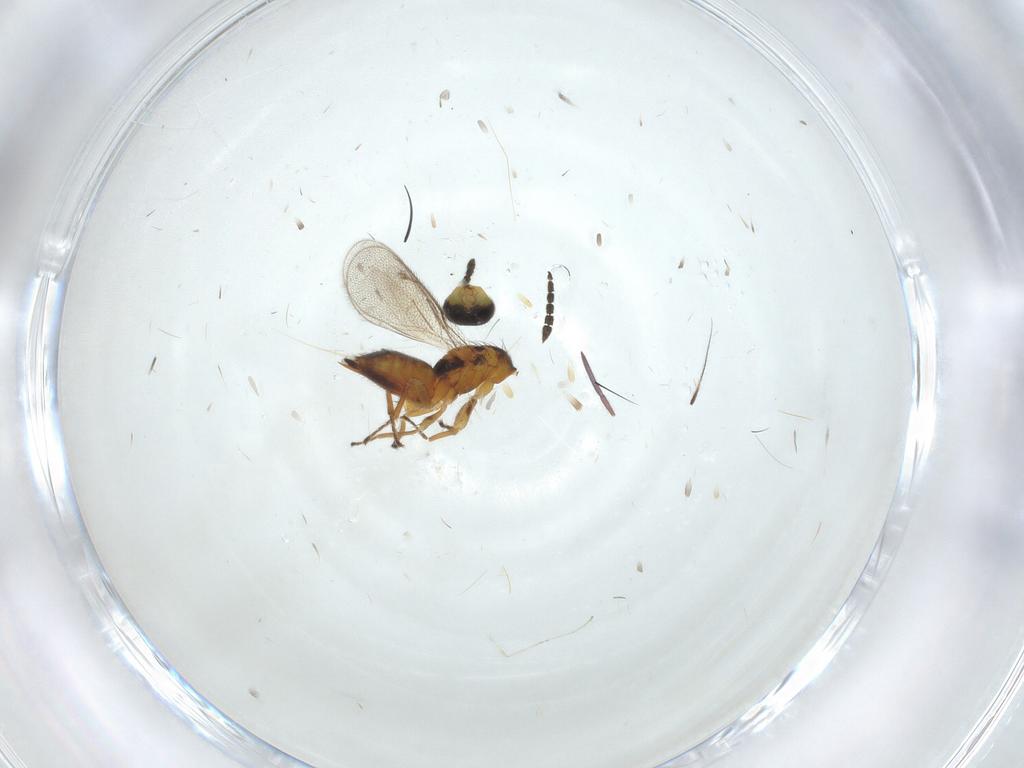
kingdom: Animalia
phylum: Arthropoda
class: Insecta
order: Hymenoptera
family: Eulophidae
